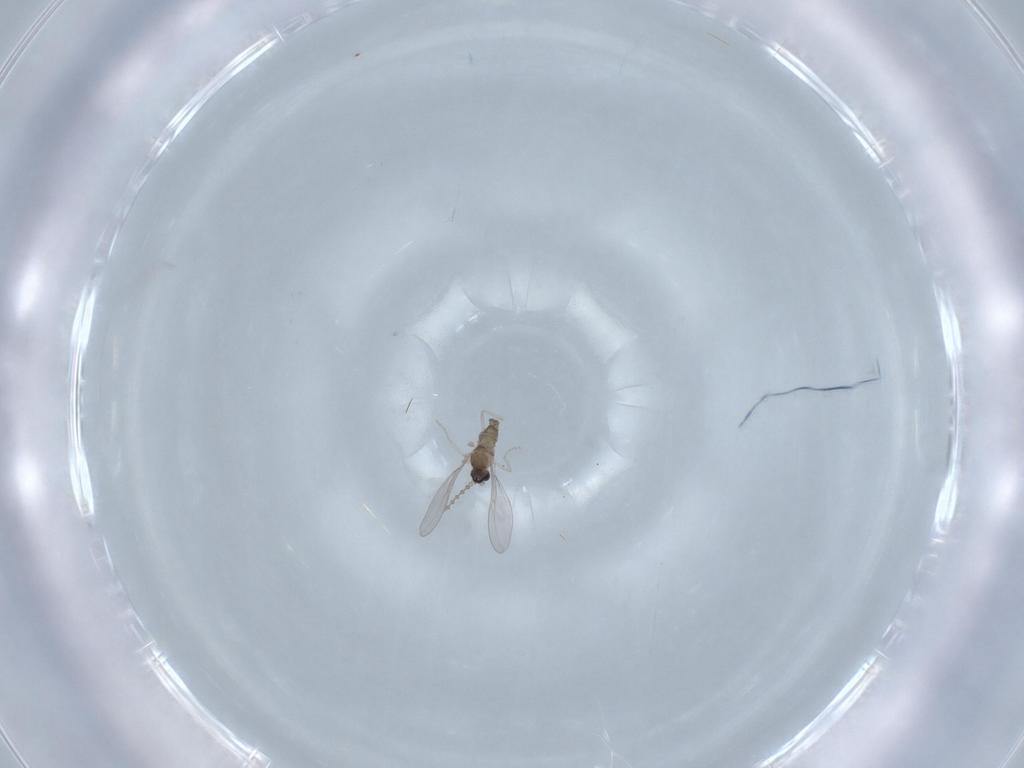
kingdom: Animalia
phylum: Arthropoda
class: Insecta
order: Diptera
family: Cecidomyiidae
